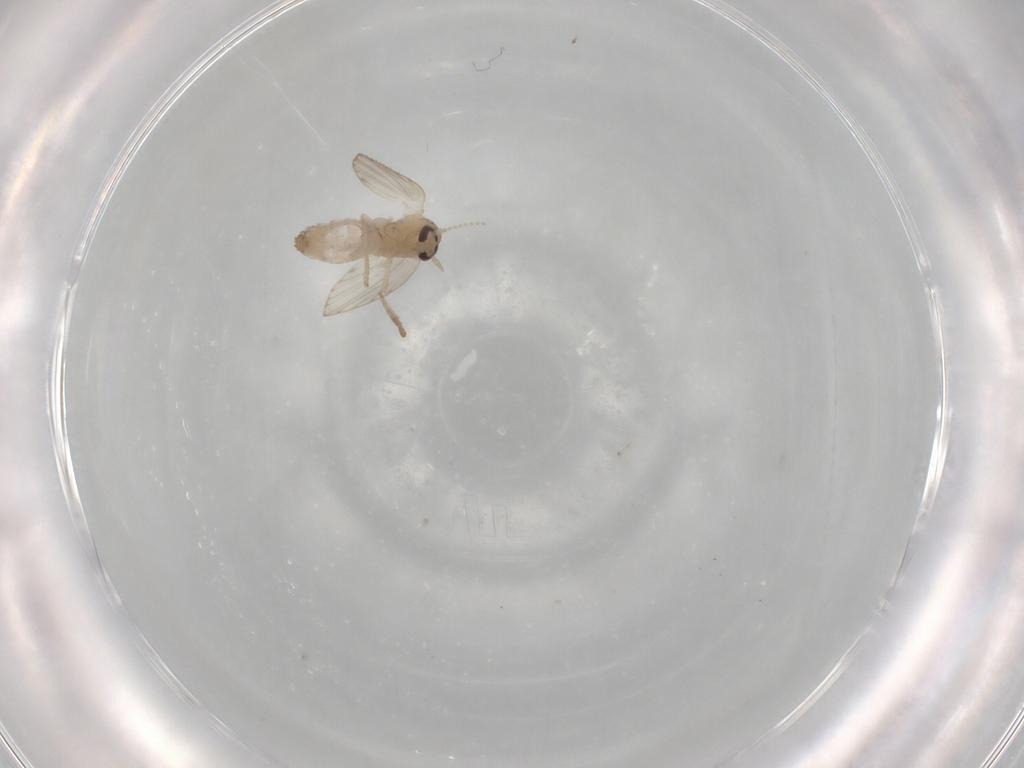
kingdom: Animalia
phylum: Arthropoda
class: Insecta
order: Diptera
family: Psychodidae
